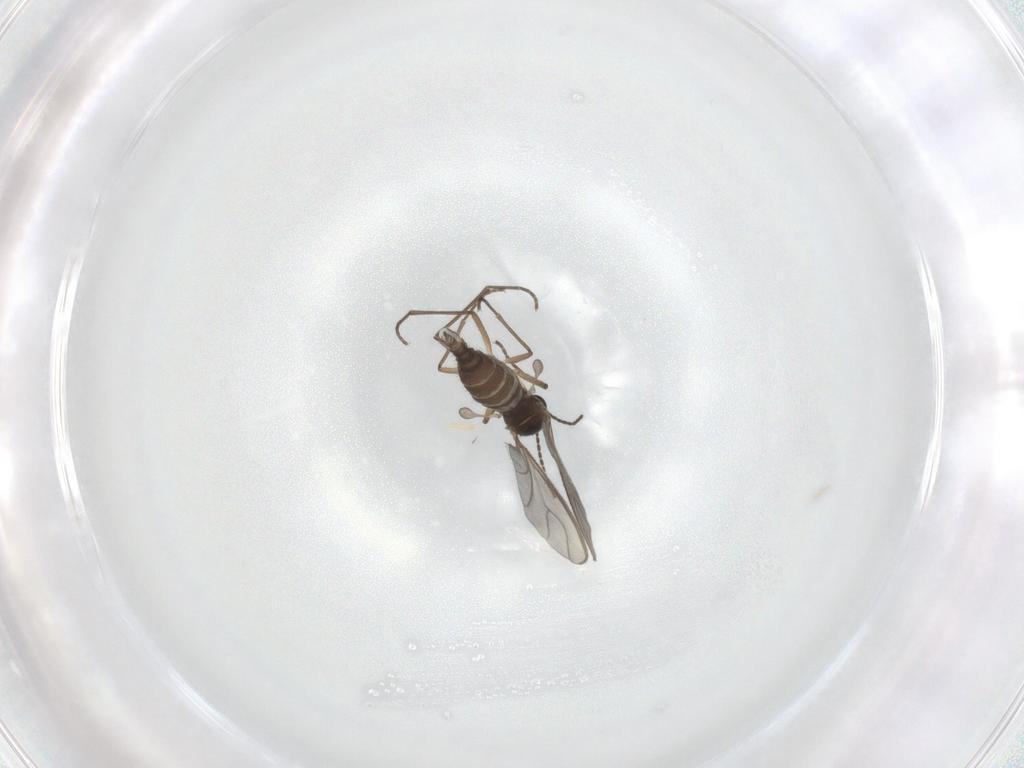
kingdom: Animalia
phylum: Arthropoda
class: Insecta
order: Diptera
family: Sciaridae
